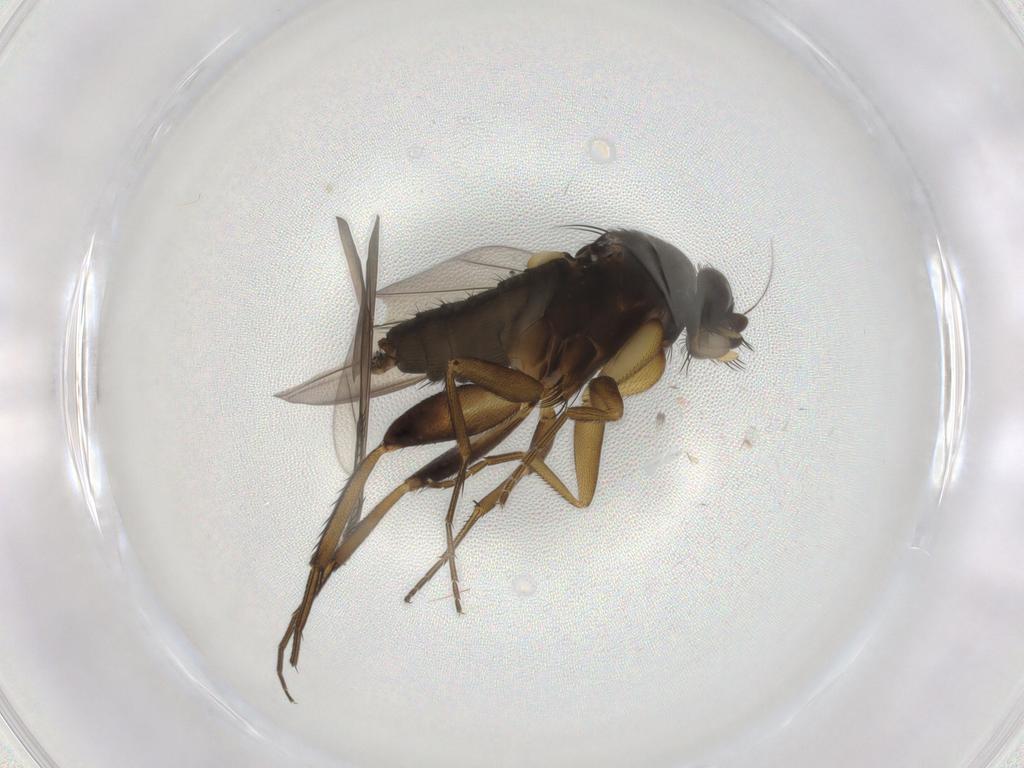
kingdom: Animalia
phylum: Arthropoda
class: Insecta
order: Diptera
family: Phoridae
